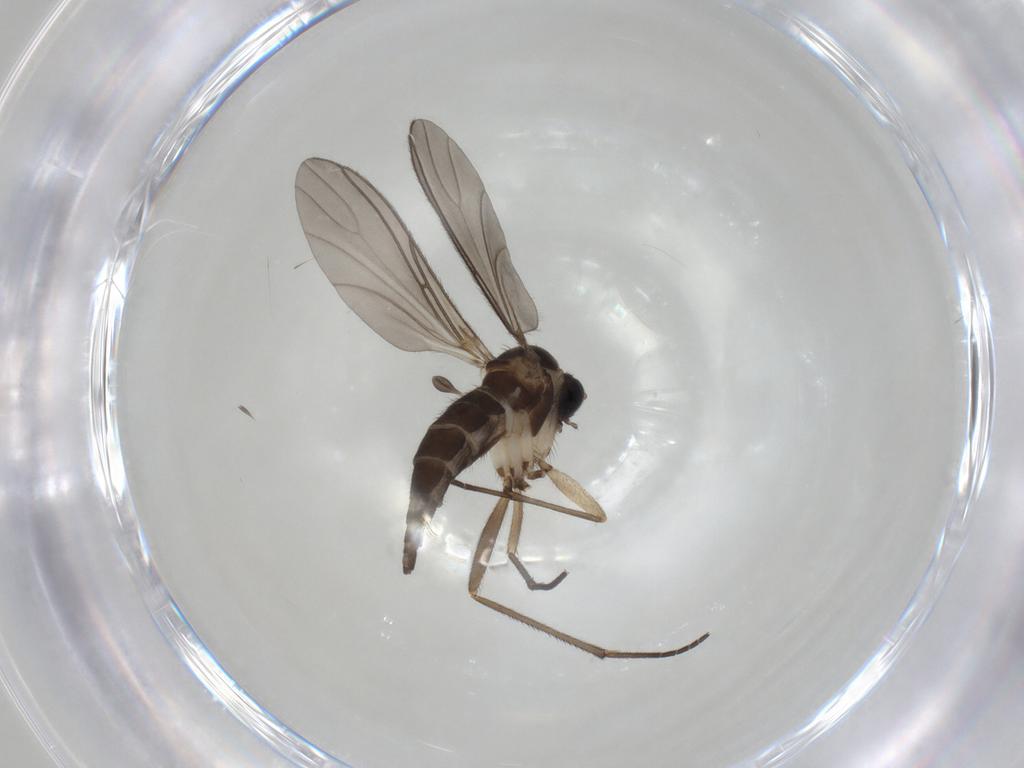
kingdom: Animalia
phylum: Arthropoda
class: Insecta
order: Diptera
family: Sciaridae
